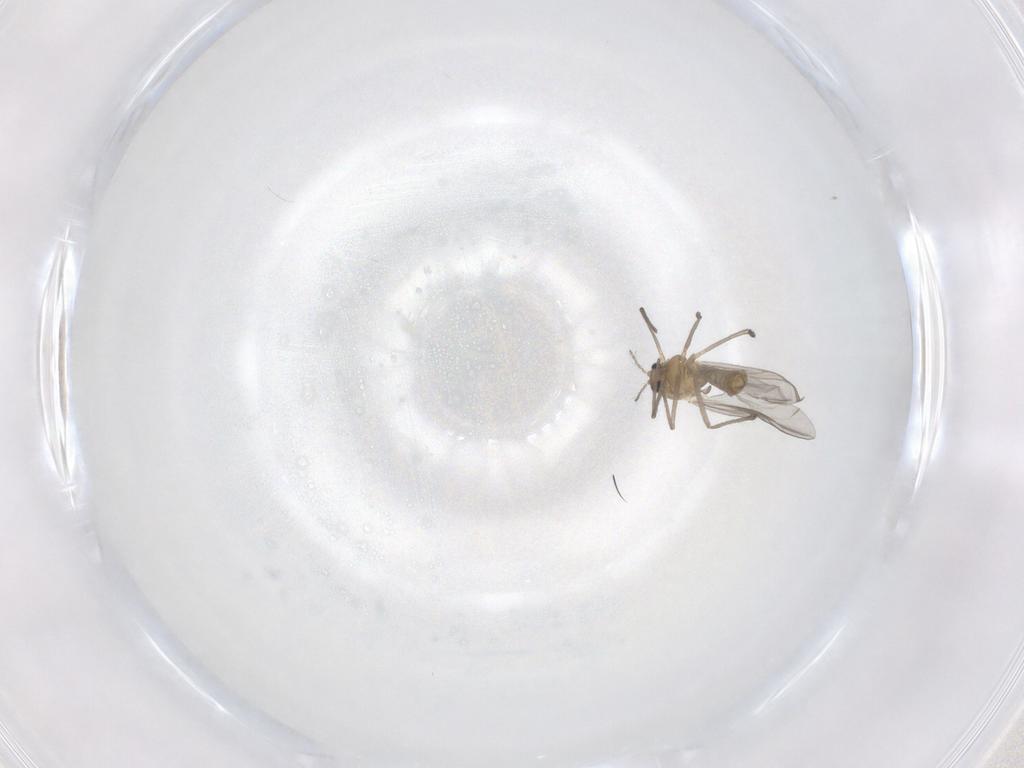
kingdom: Animalia
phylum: Arthropoda
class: Insecta
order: Diptera
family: Chironomidae
